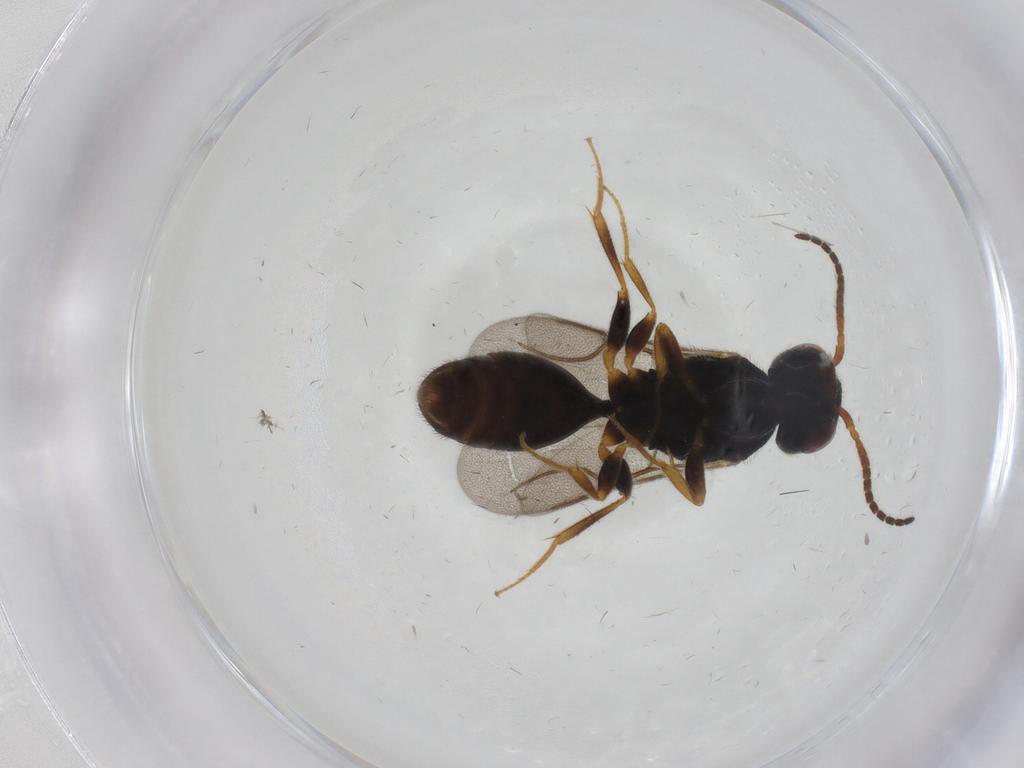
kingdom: Animalia
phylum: Arthropoda
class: Insecta
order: Hymenoptera
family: Bethylidae
